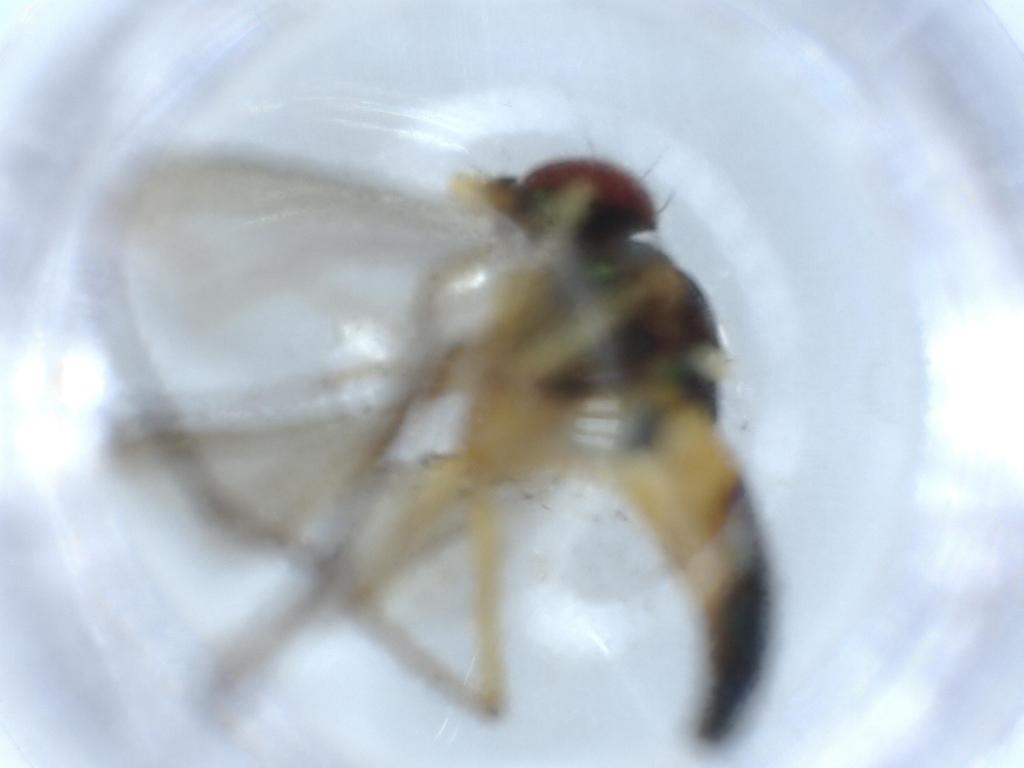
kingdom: Animalia
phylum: Arthropoda
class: Insecta
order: Diptera
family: Dolichopodidae
